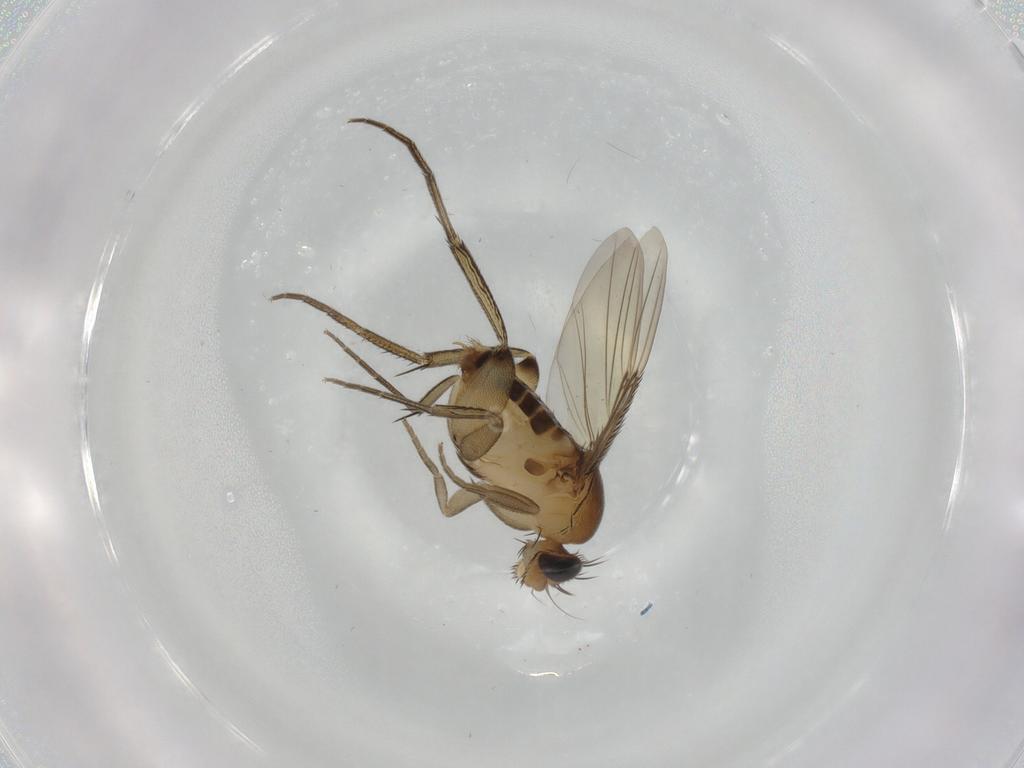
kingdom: Animalia
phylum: Arthropoda
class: Insecta
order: Diptera
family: Phoridae
